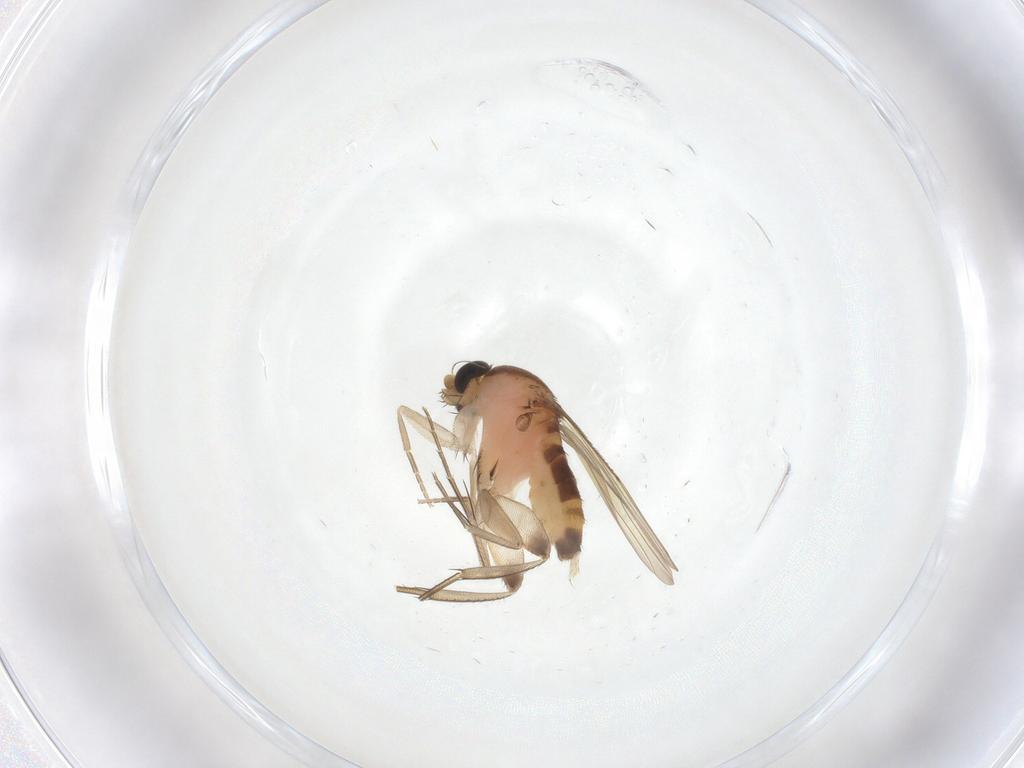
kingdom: Animalia
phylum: Arthropoda
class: Insecta
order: Diptera
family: Phoridae
